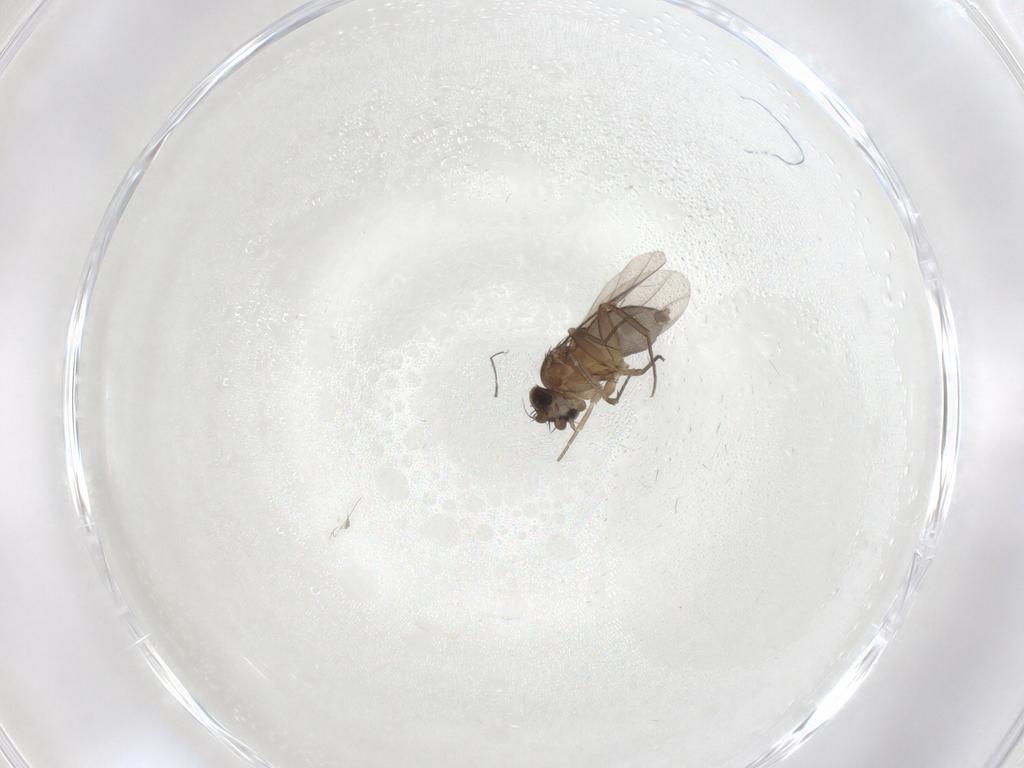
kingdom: Animalia
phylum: Arthropoda
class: Insecta
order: Diptera
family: Phoridae
